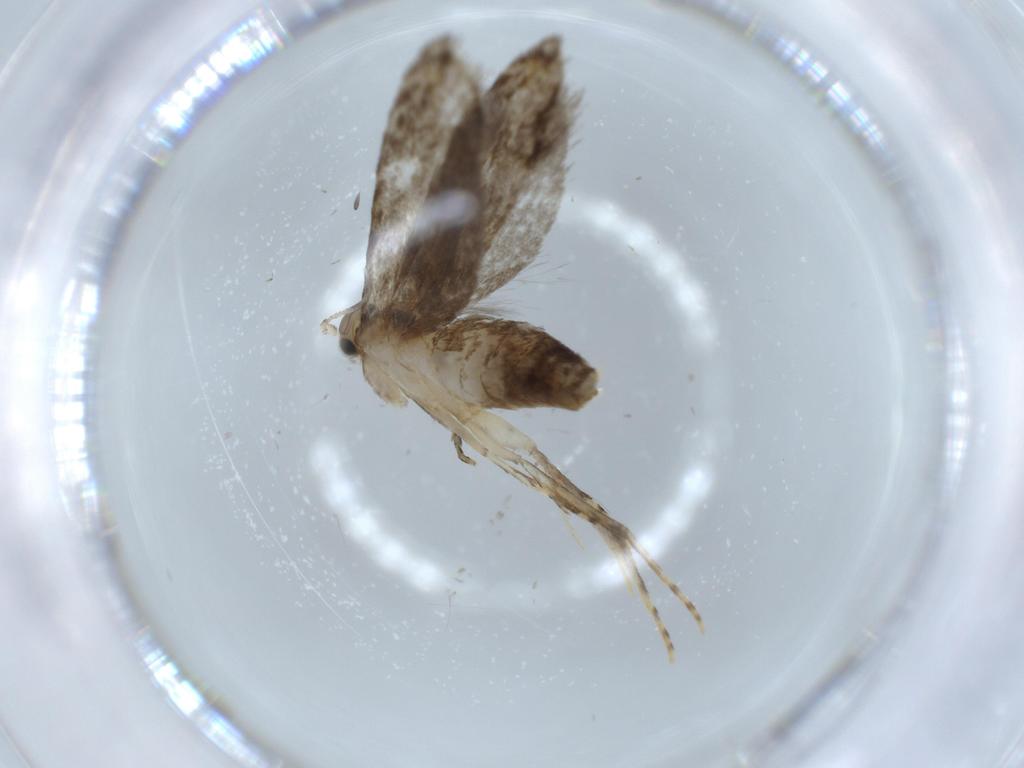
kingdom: Animalia
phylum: Arthropoda
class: Insecta
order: Lepidoptera
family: Tineidae
